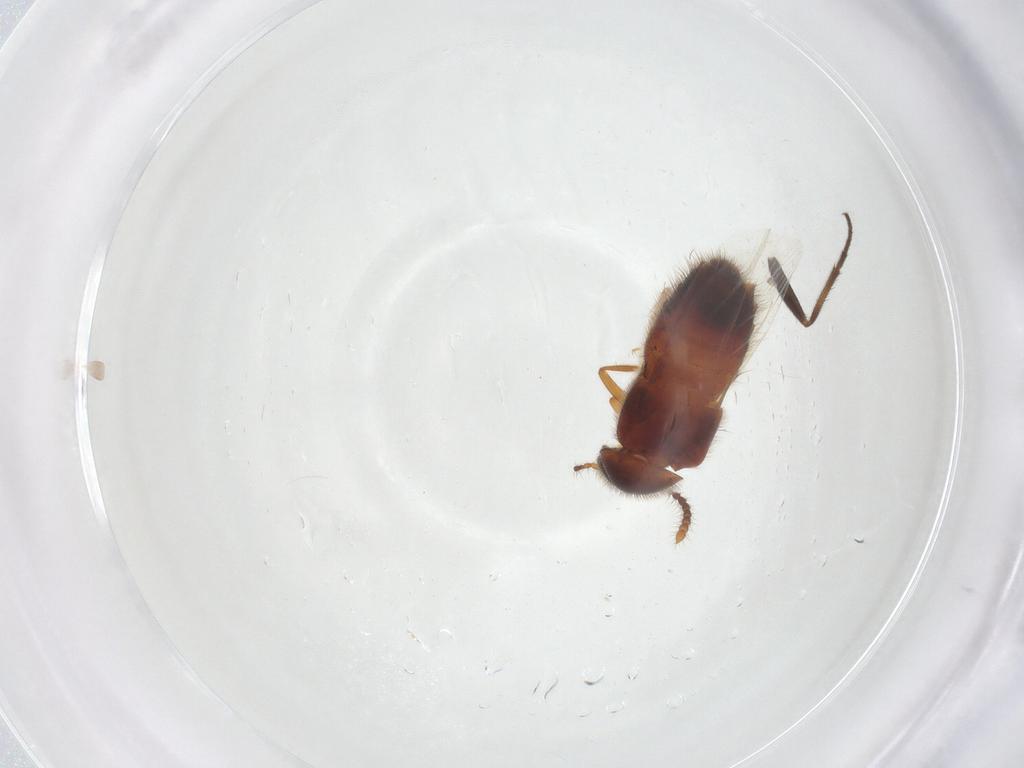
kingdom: Animalia
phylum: Arthropoda
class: Insecta
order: Coleoptera
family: Staphylinidae
